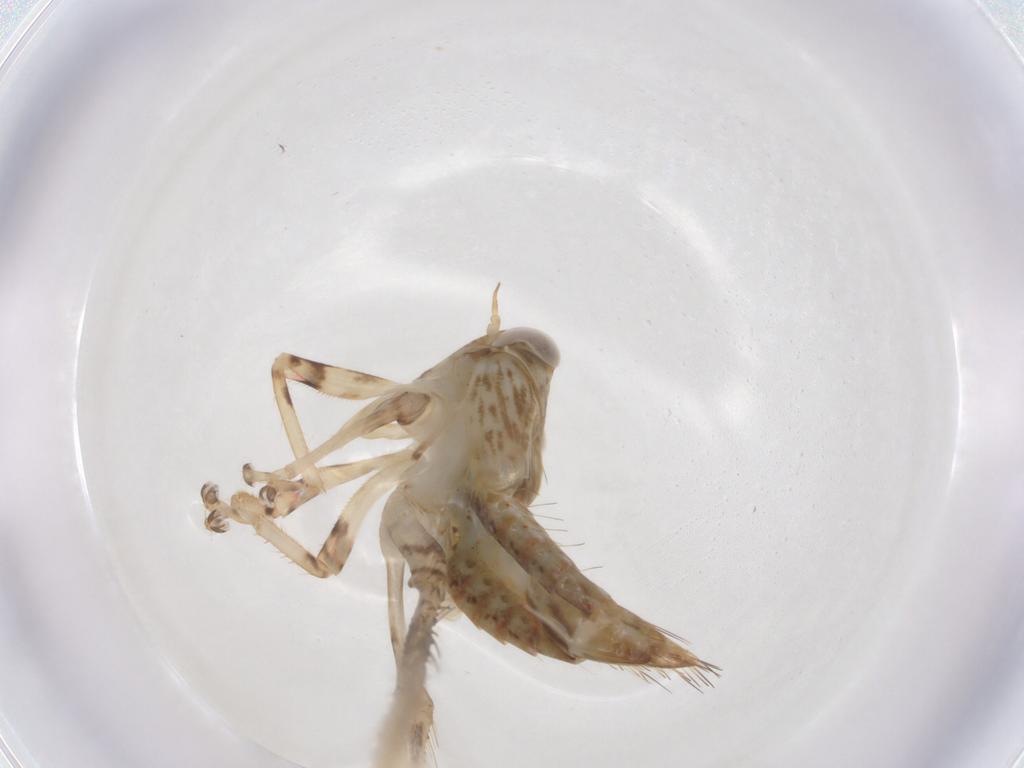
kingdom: Animalia
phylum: Arthropoda
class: Insecta
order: Hemiptera
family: Cicadellidae
